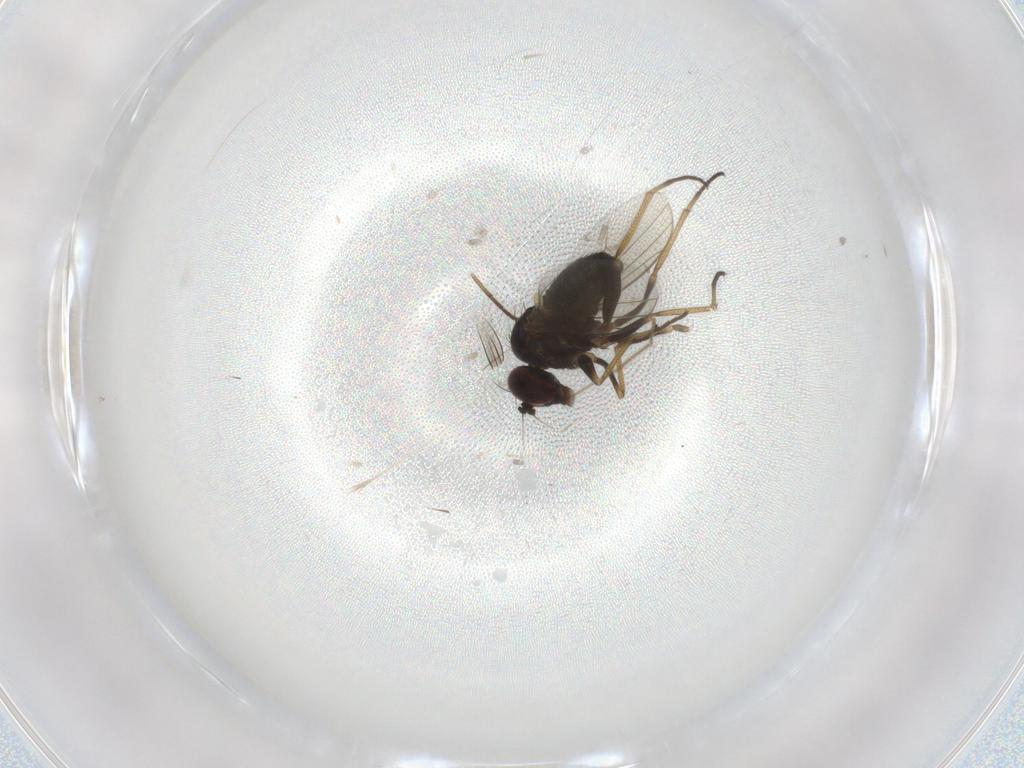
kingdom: Animalia
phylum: Arthropoda
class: Insecta
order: Diptera
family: Dolichopodidae
